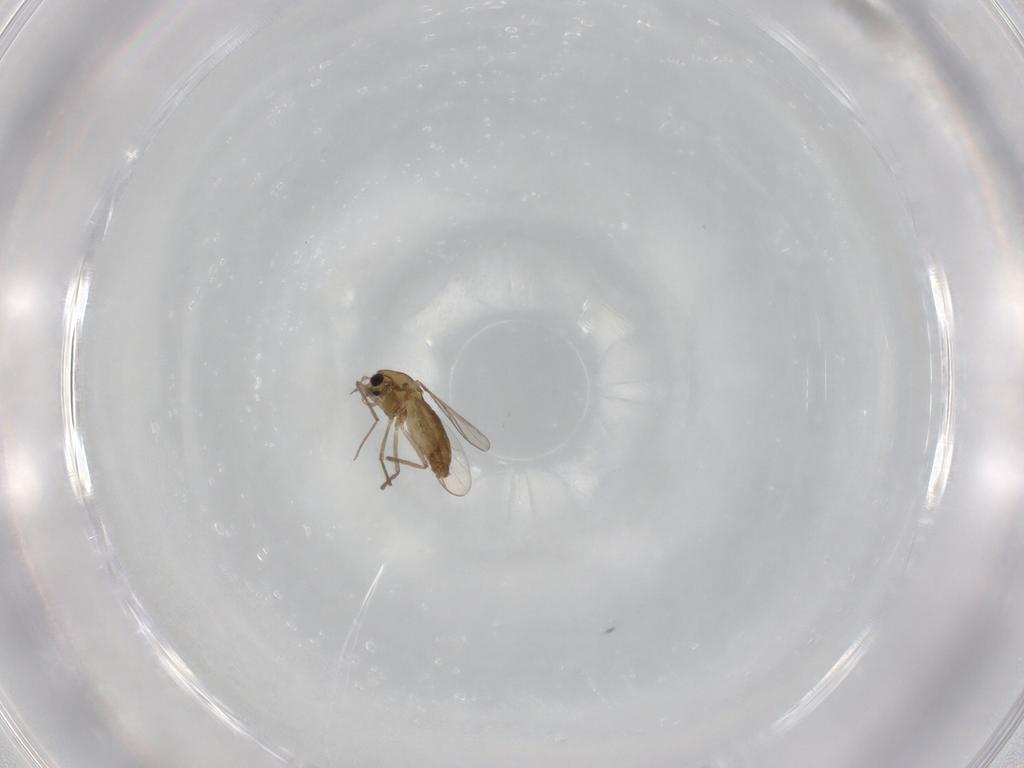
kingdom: Animalia
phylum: Arthropoda
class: Insecta
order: Diptera
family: Chironomidae
